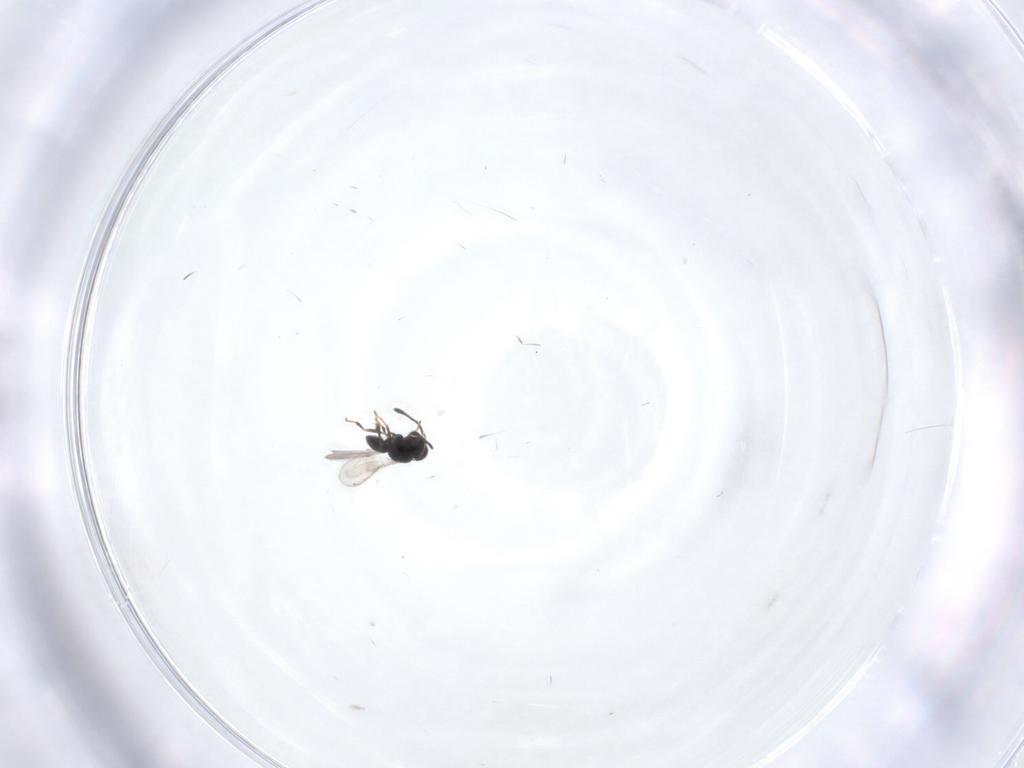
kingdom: Animalia
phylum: Arthropoda
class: Insecta
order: Hymenoptera
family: Scelionidae
